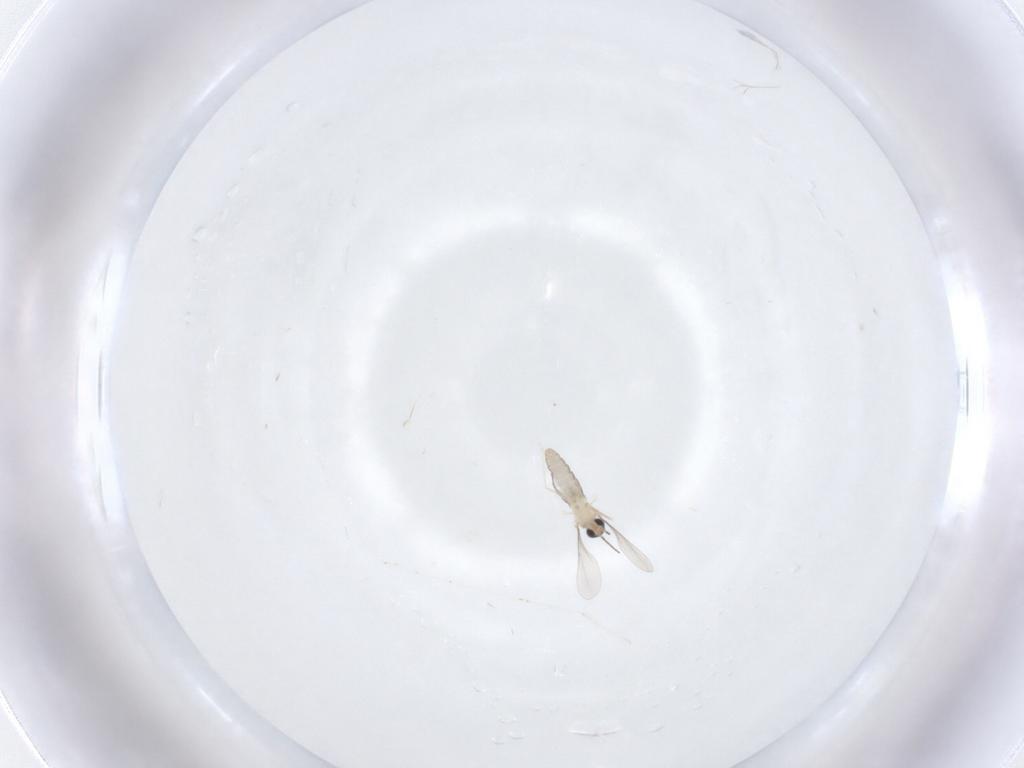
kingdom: Animalia
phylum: Arthropoda
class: Insecta
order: Diptera
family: Cecidomyiidae
